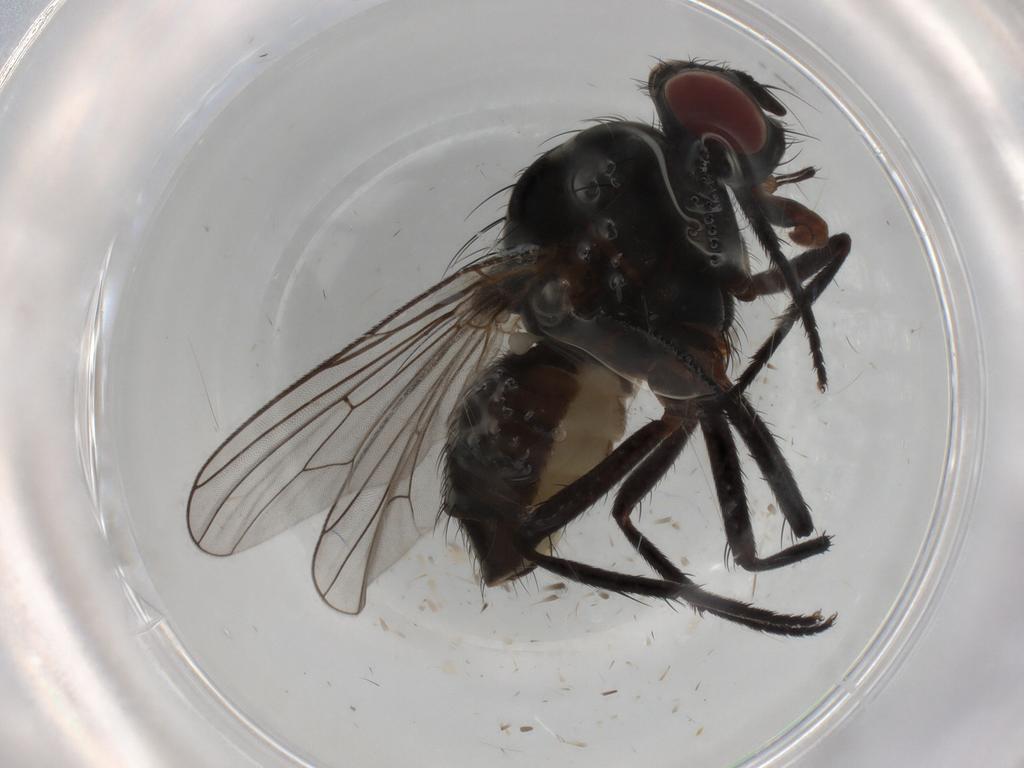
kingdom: Animalia
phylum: Arthropoda
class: Insecta
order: Diptera
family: Anthomyiidae
